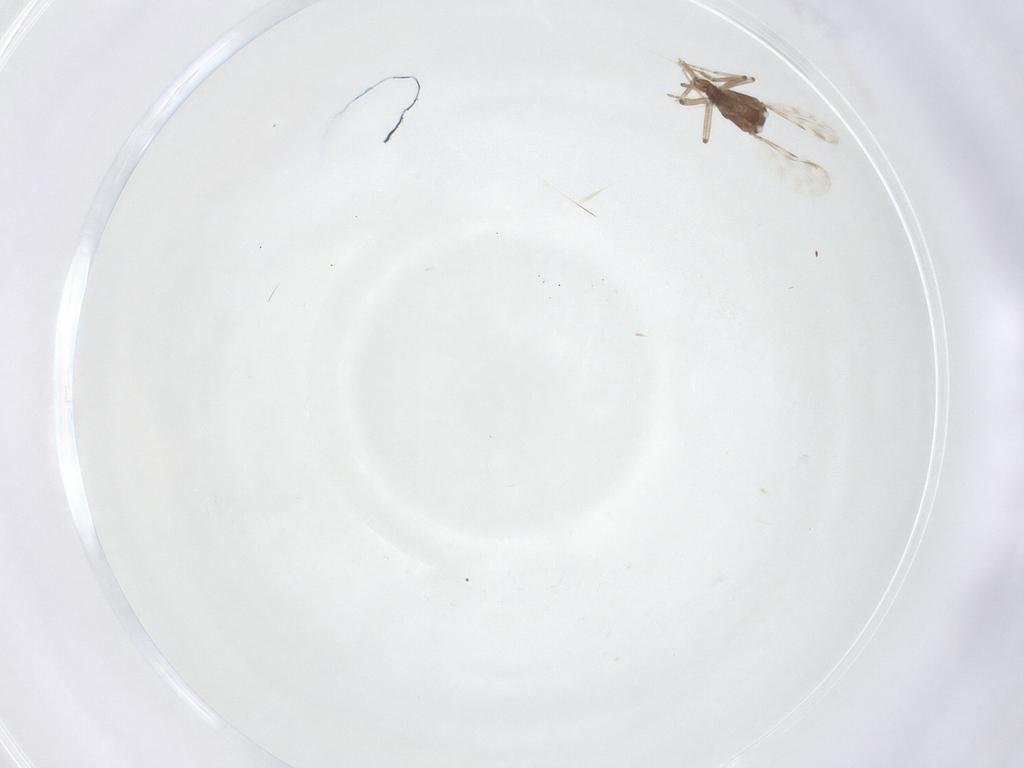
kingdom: Animalia
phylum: Arthropoda
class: Insecta
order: Diptera
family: Ceratopogonidae
